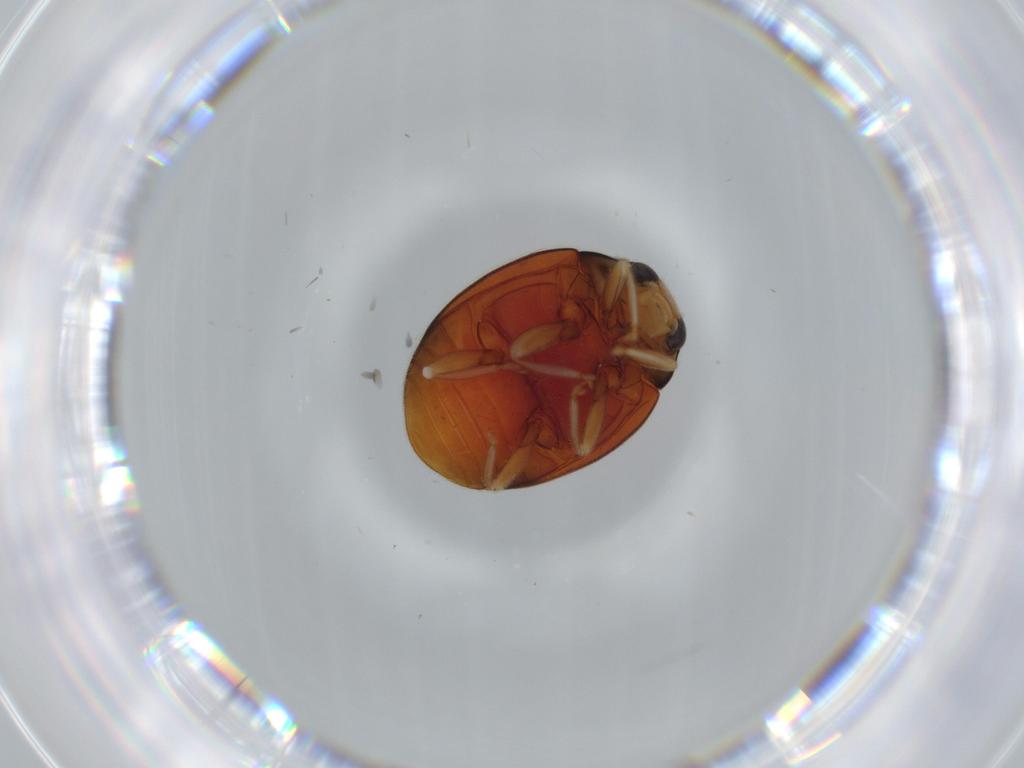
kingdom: Animalia
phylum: Arthropoda
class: Insecta
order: Coleoptera
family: Coccinellidae
